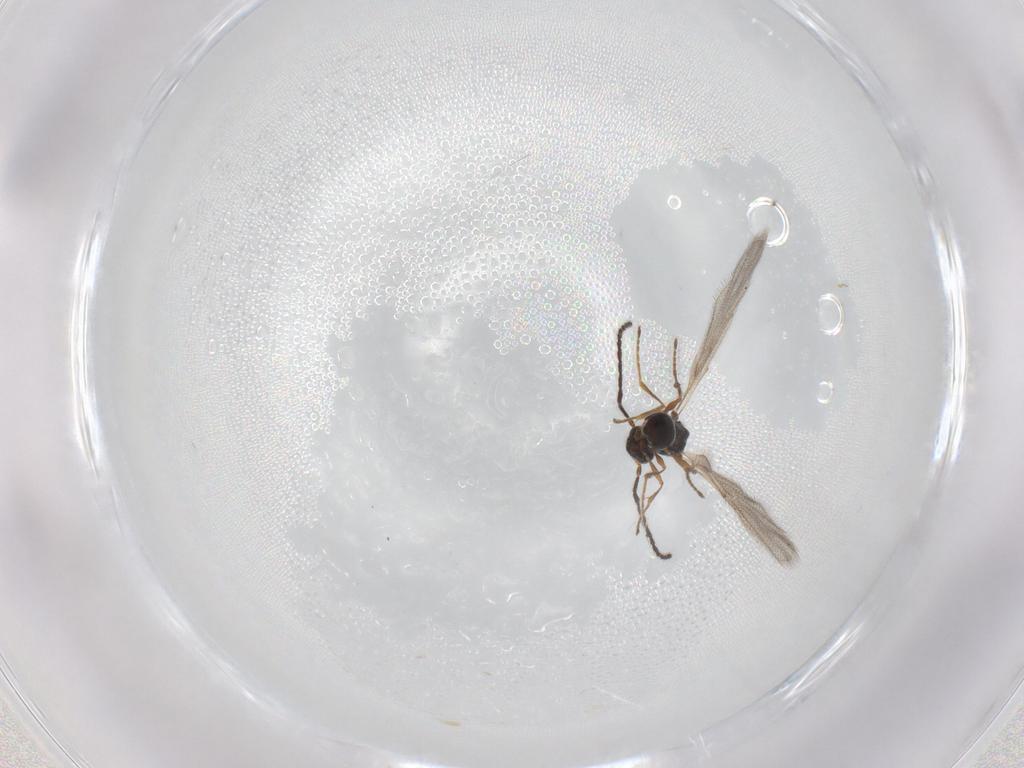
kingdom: Animalia
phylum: Arthropoda
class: Insecta
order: Hymenoptera
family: Diapriidae
